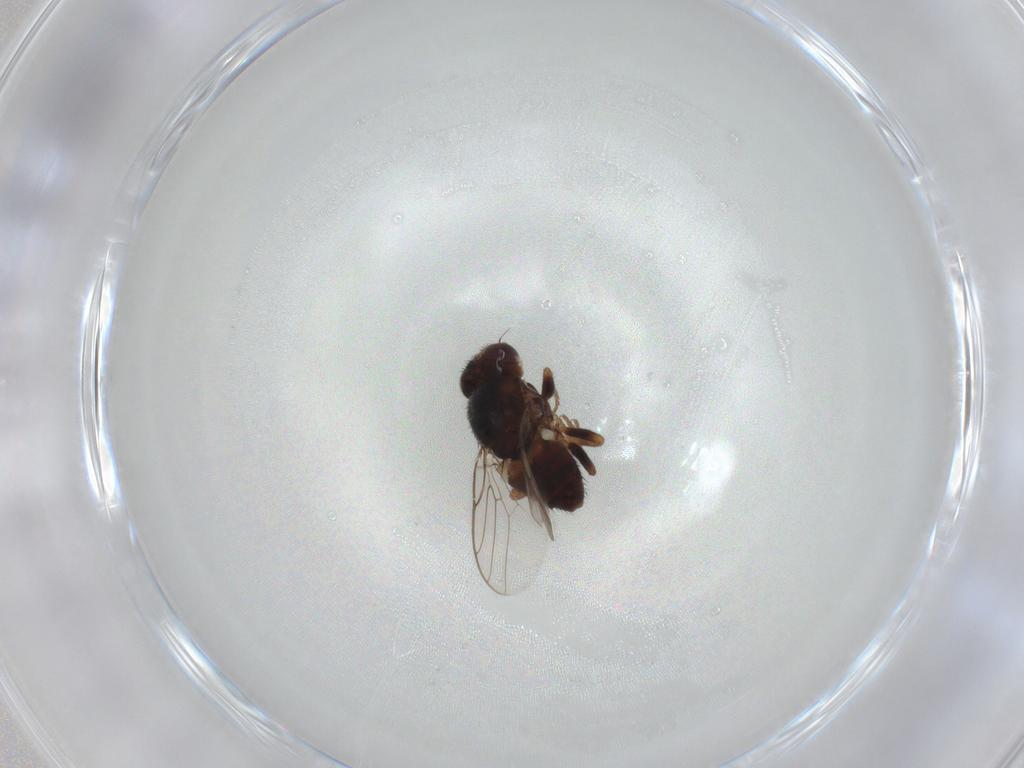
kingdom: Animalia
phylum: Arthropoda
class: Insecta
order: Diptera
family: Chloropidae
